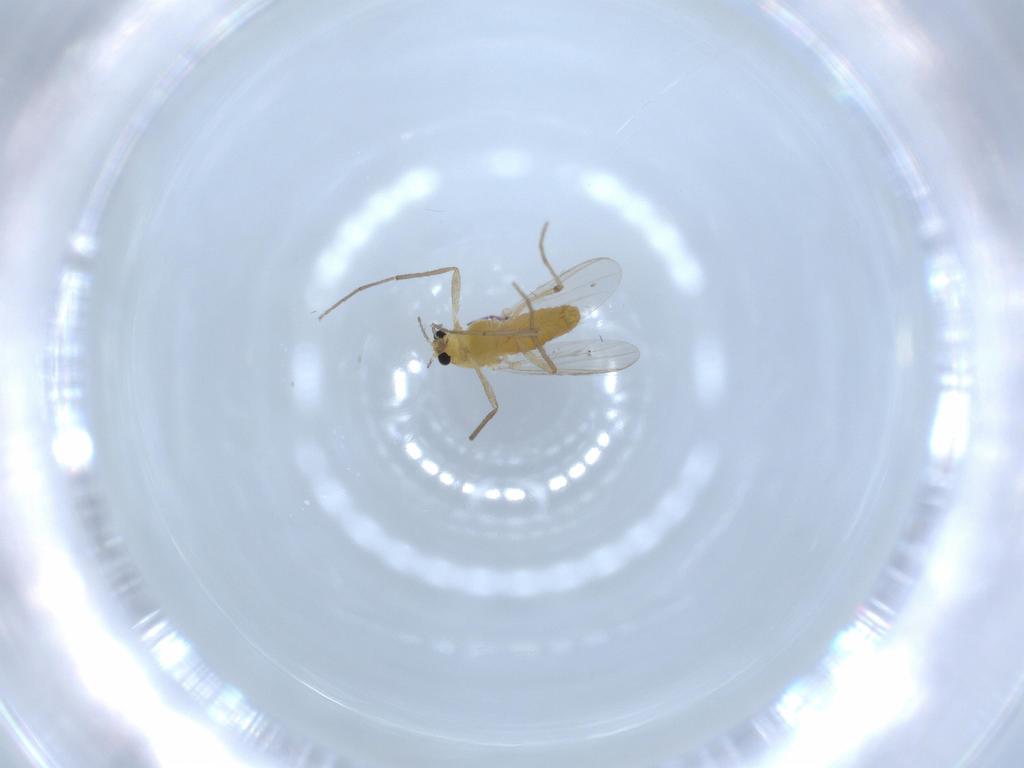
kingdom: Animalia
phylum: Arthropoda
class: Insecta
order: Diptera
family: Chironomidae
